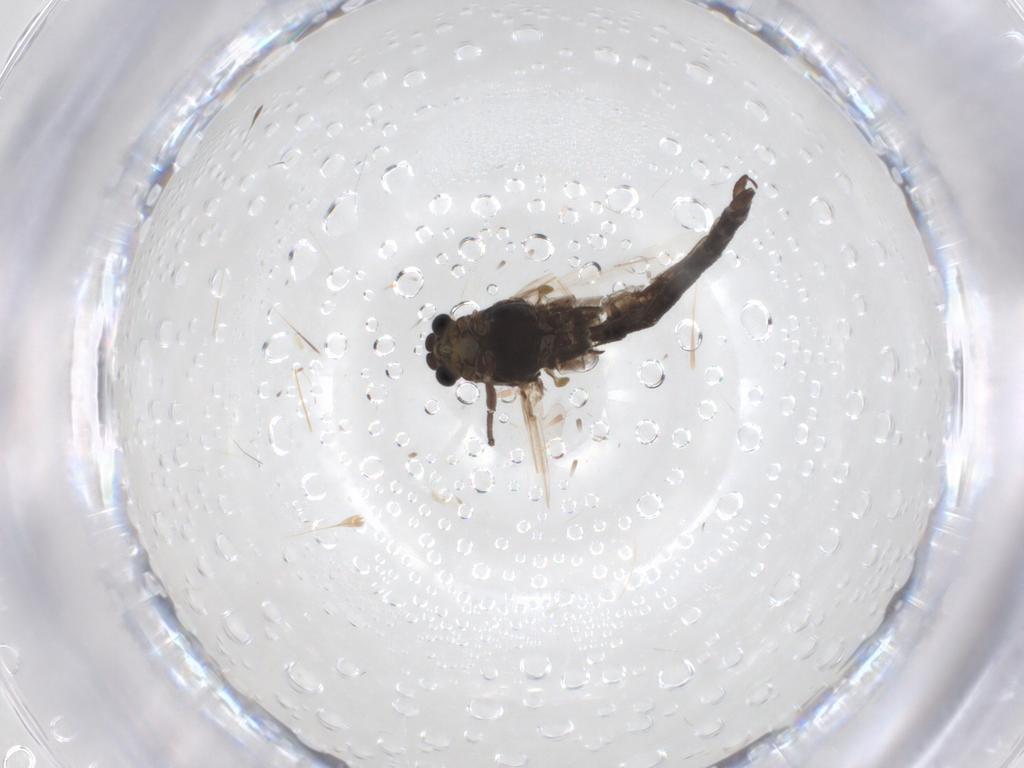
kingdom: Animalia
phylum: Arthropoda
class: Insecta
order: Diptera
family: Chironomidae
